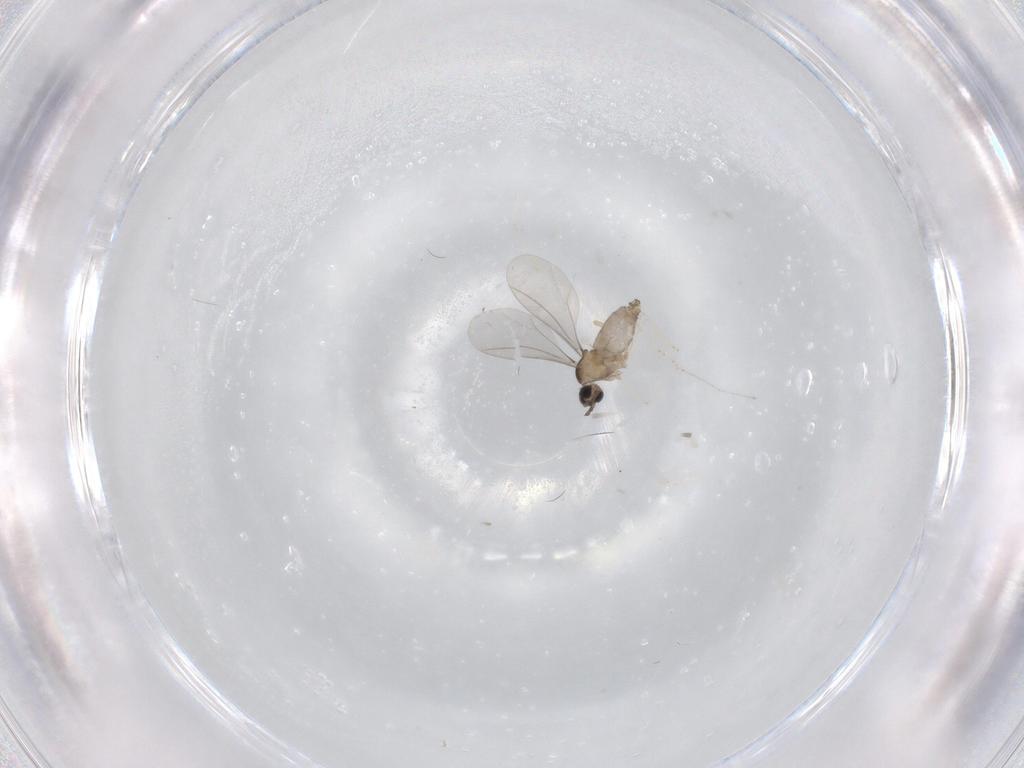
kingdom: Animalia
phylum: Arthropoda
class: Insecta
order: Diptera
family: Cecidomyiidae
